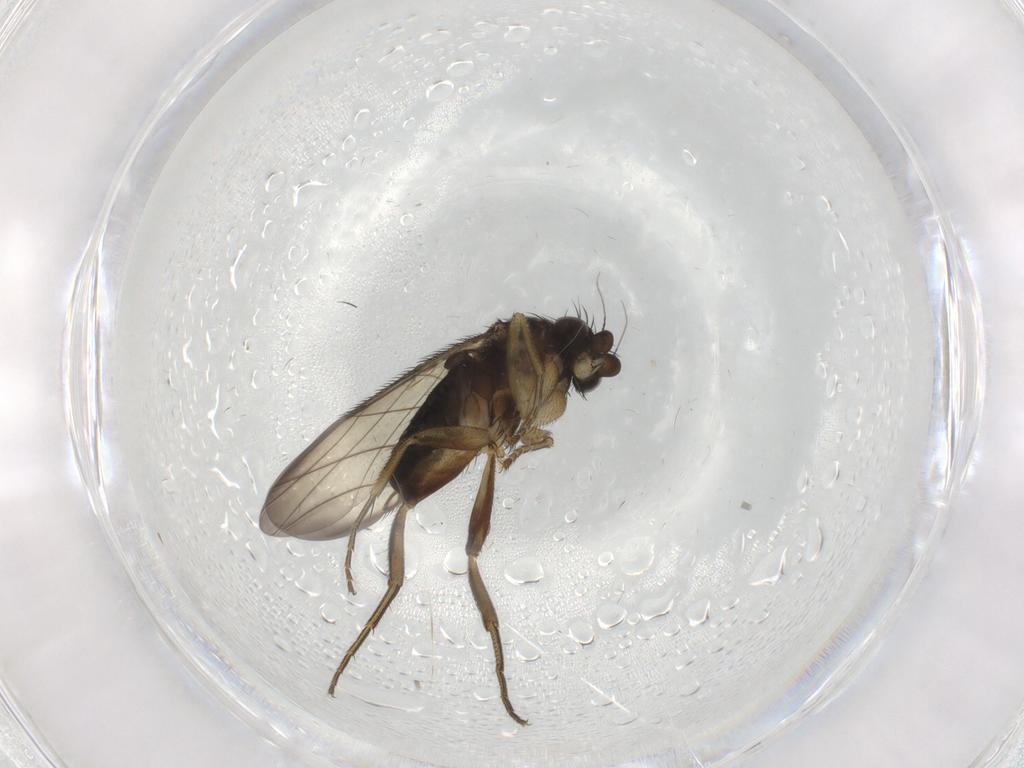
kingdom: Animalia
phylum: Arthropoda
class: Insecta
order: Diptera
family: Phoridae
